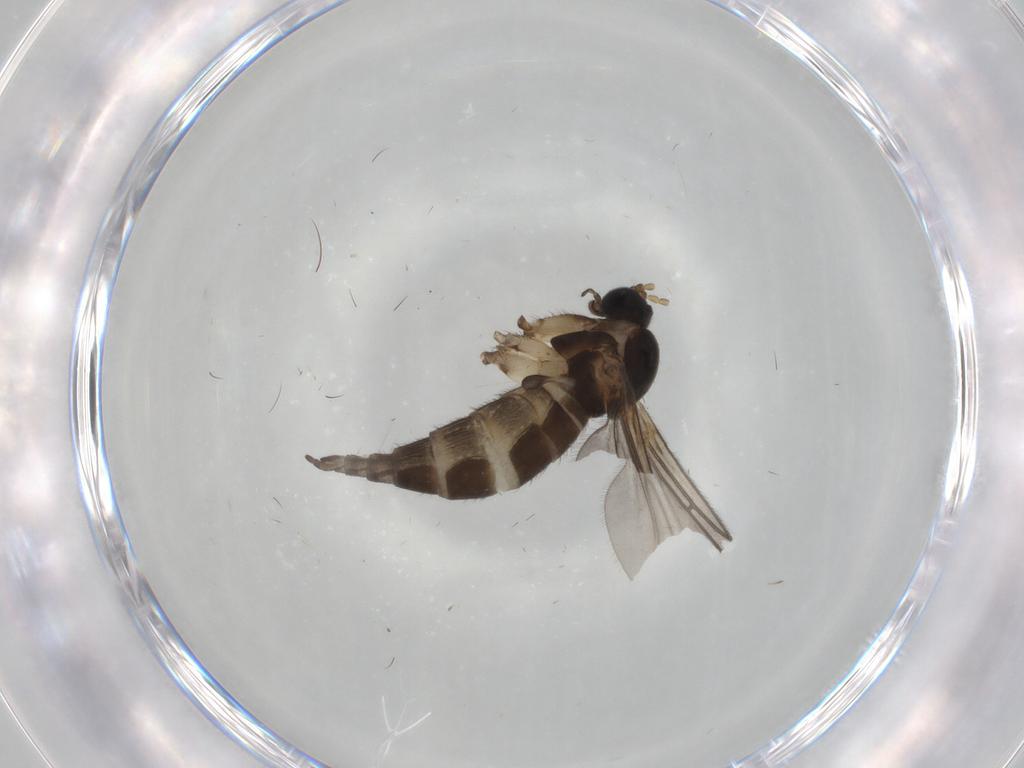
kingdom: Animalia
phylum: Arthropoda
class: Insecta
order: Diptera
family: Sciaridae
